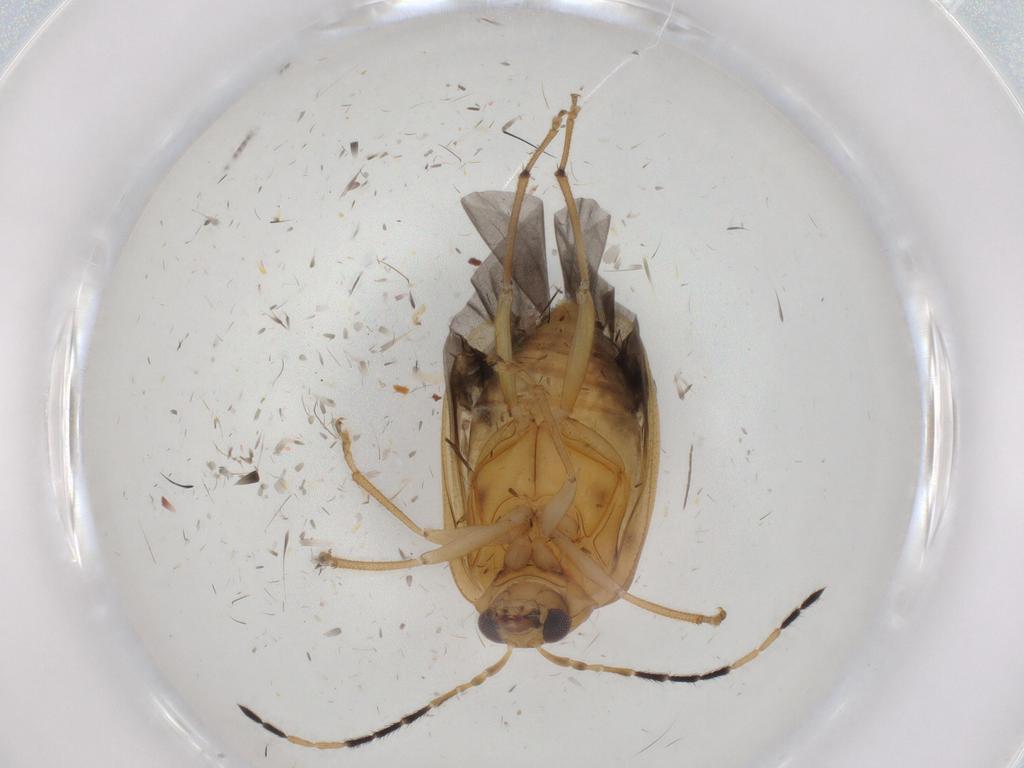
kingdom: Animalia
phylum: Arthropoda
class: Insecta
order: Coleoptera
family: Chrysomelidae
